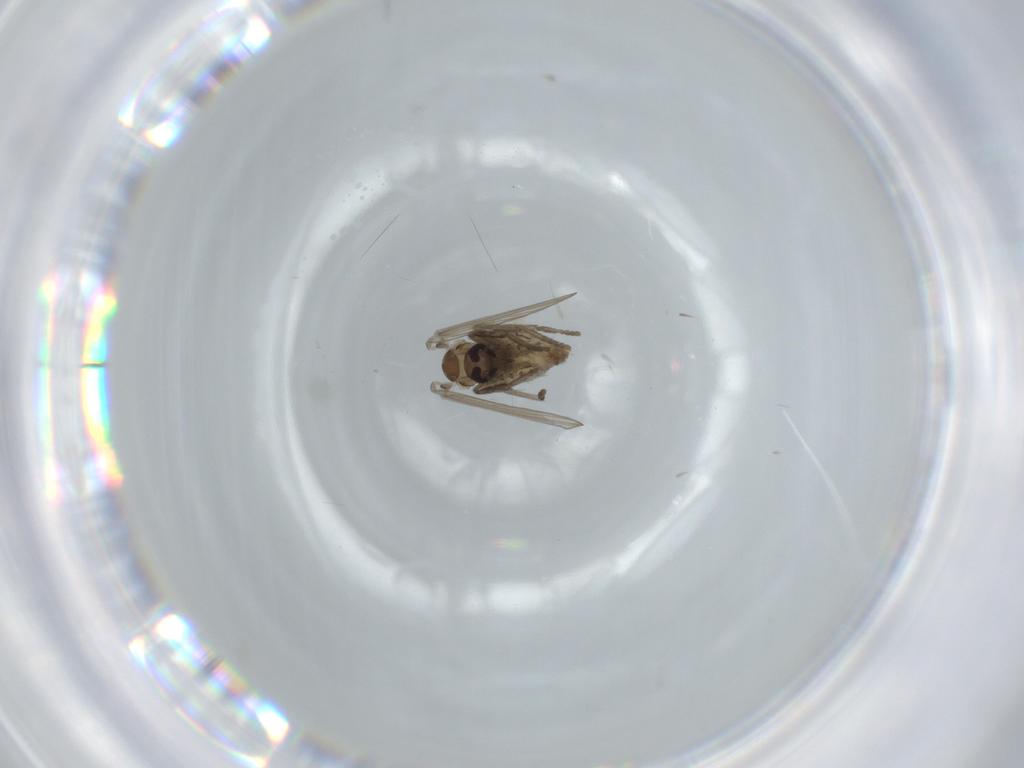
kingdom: Animalia
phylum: Arthropoda
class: Insecta
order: Diptera
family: Psychodidae
